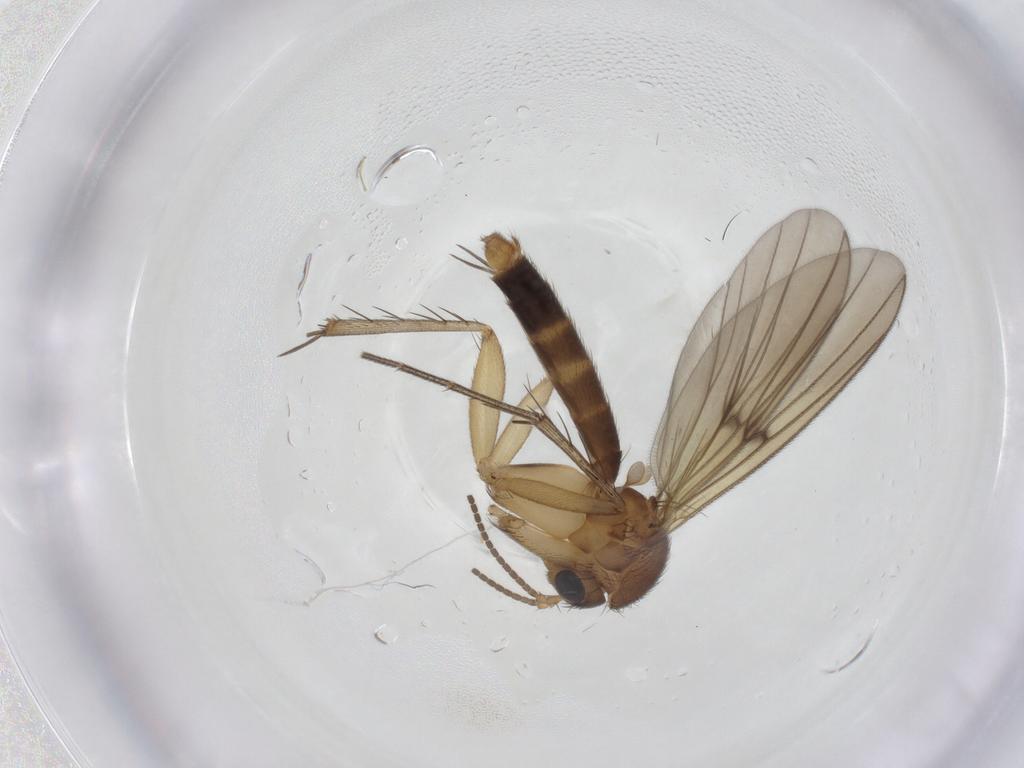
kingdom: Animalia
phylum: Arthropoda
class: Insecta
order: Diptera
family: Mycetophilidae
